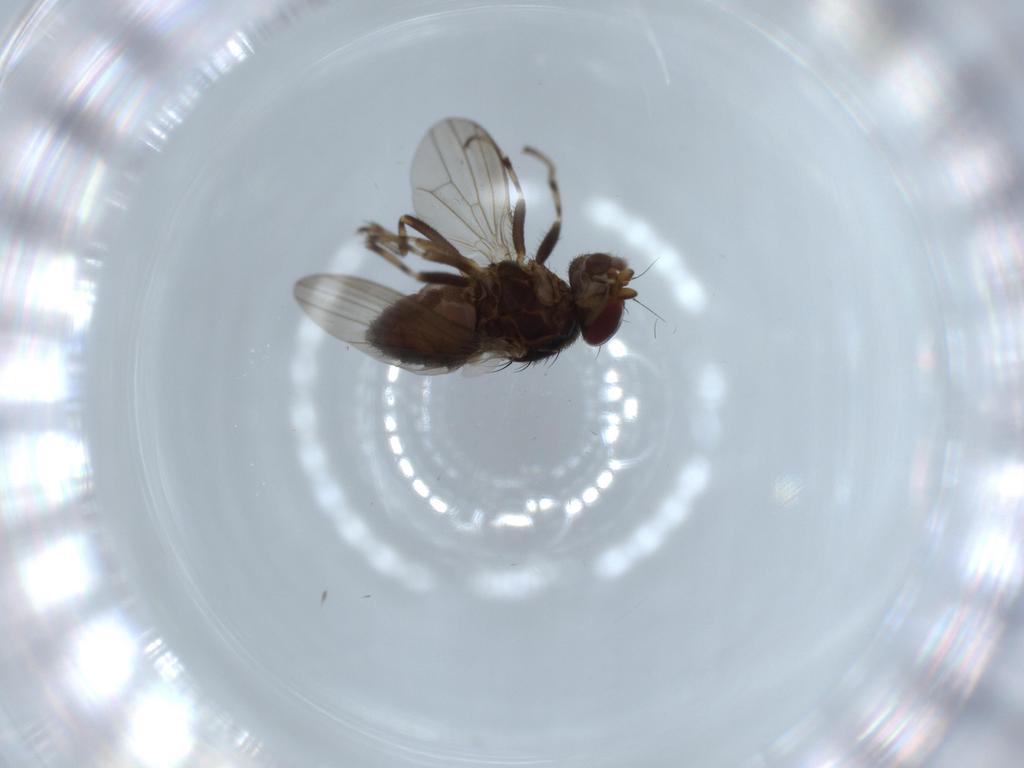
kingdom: Animalia
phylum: Arthropoda
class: Insecta
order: Diptera
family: Heleomyzidae
